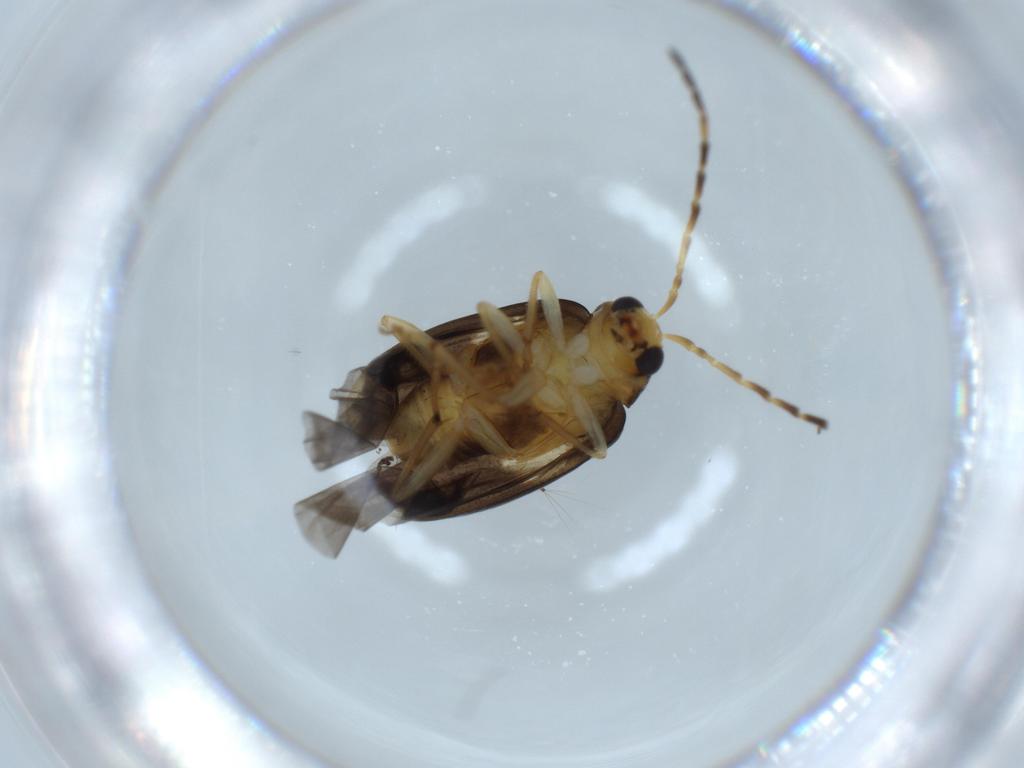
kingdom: Animalia
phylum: Arthropoda
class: Insecta
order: Coleoptera
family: Chrysomelidae
